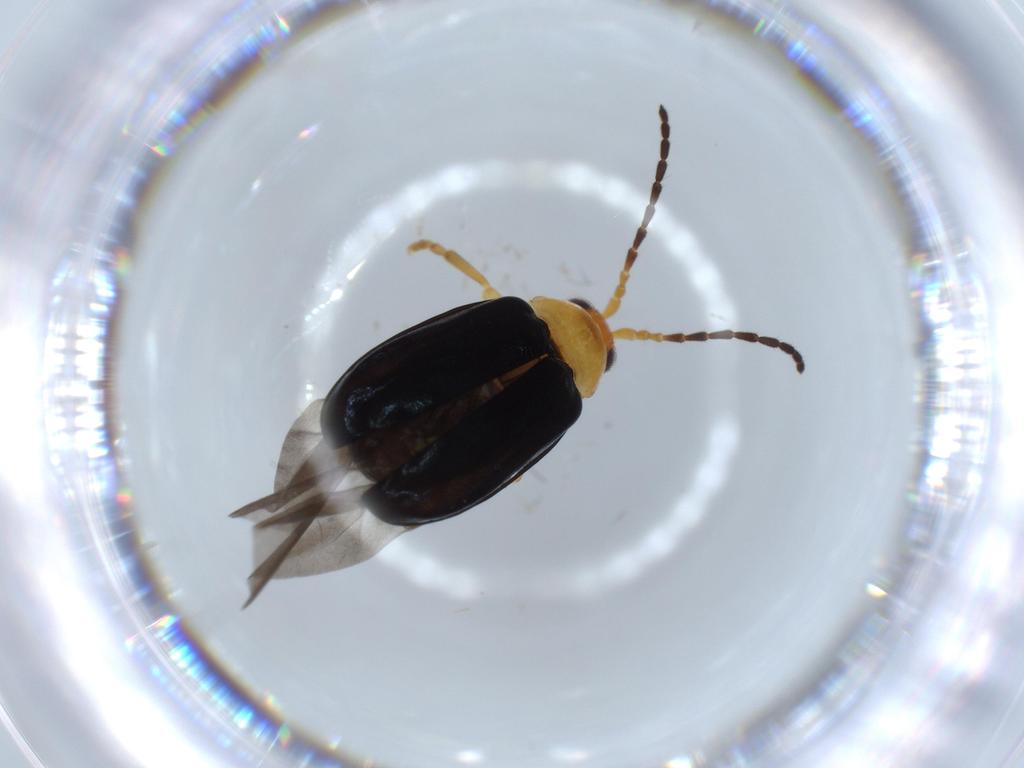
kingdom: Animalia
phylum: Arthropoda
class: Insecta
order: Coleoptera
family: Chrysomelidae
